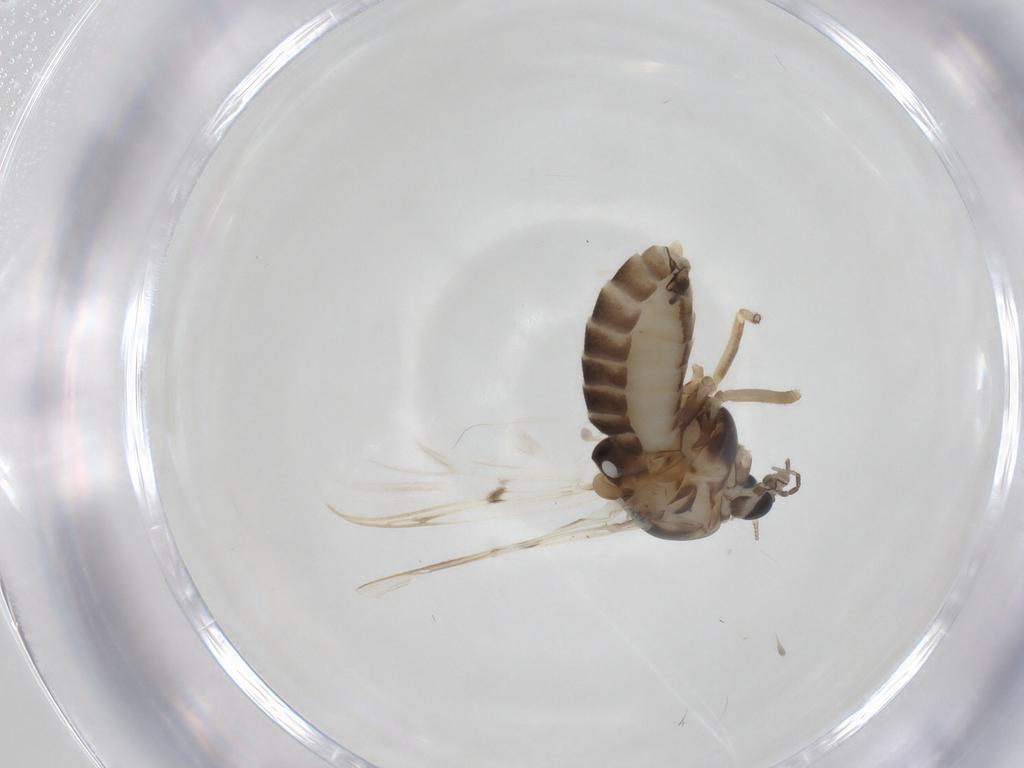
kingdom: Animalia
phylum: Arthropoda
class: Insecta
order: Diptera
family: Chironomidae
